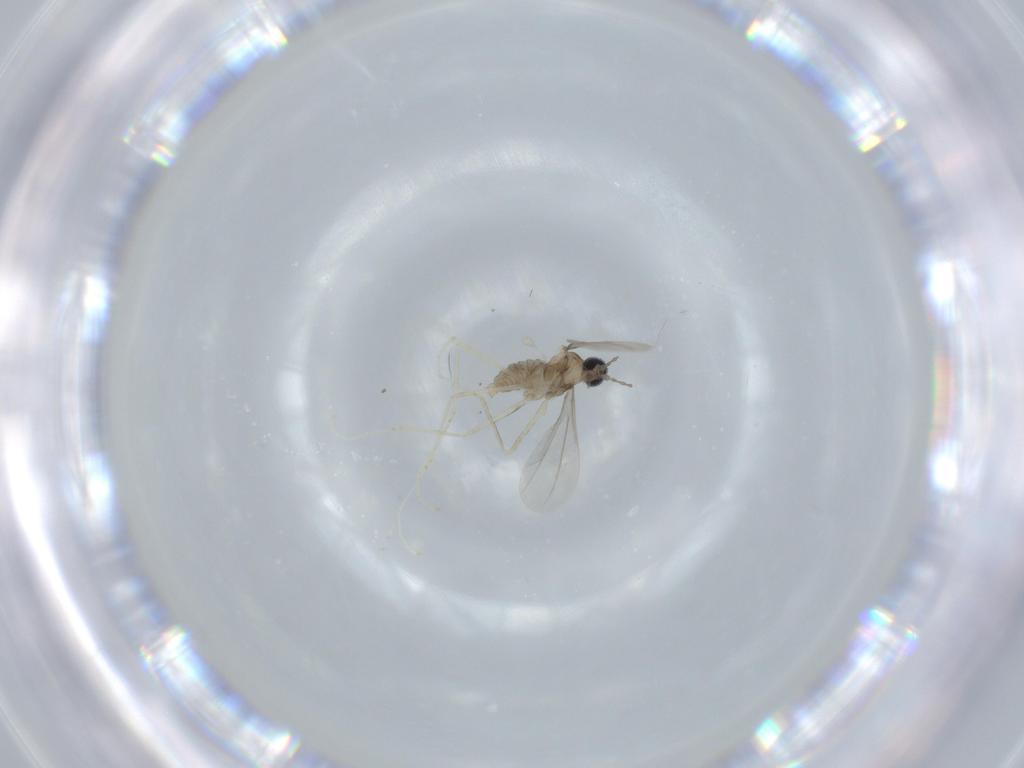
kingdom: Animalia
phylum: Arthropoda
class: Insecta
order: Diptera
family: Cecidomyiidae
